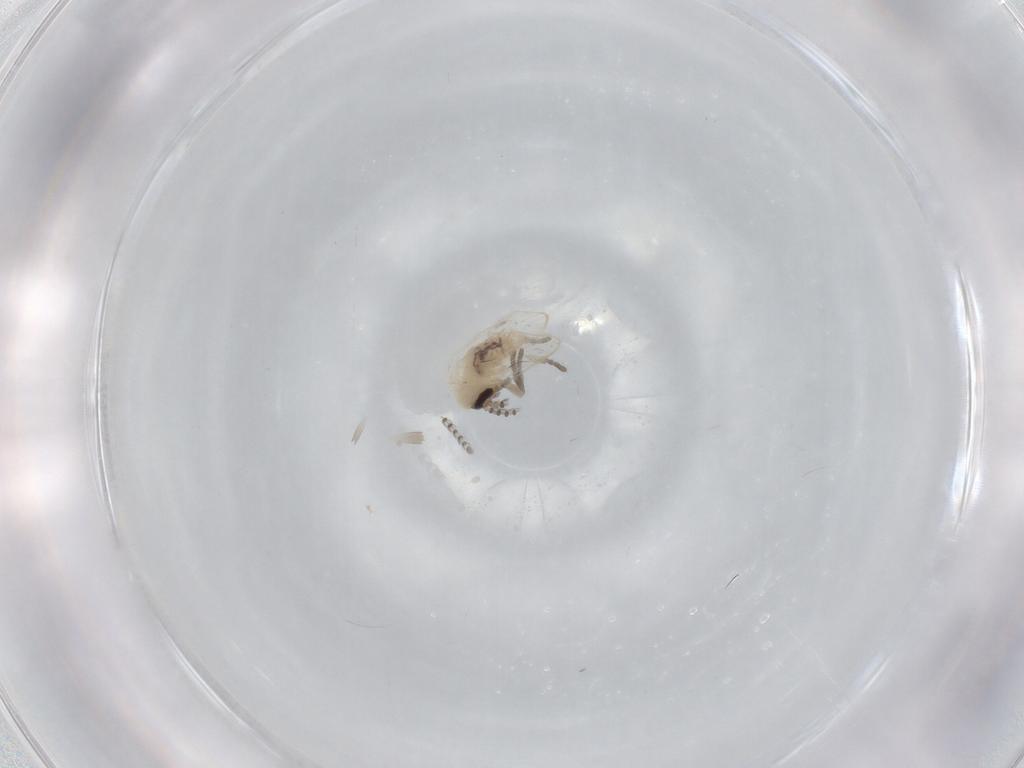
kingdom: Animalia
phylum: Arthropoda
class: Insecta
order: Diptera
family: Psychodidae
